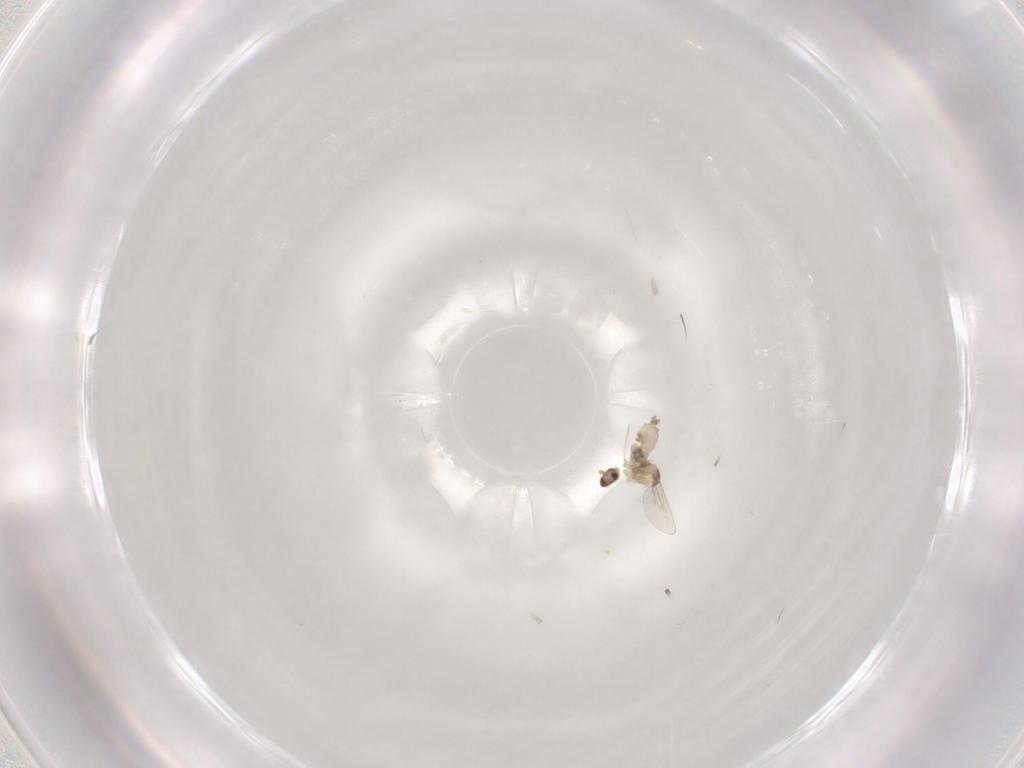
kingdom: Animalia
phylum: Arthropoda
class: Insecta
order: Diptera
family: Cecidomyiidae
